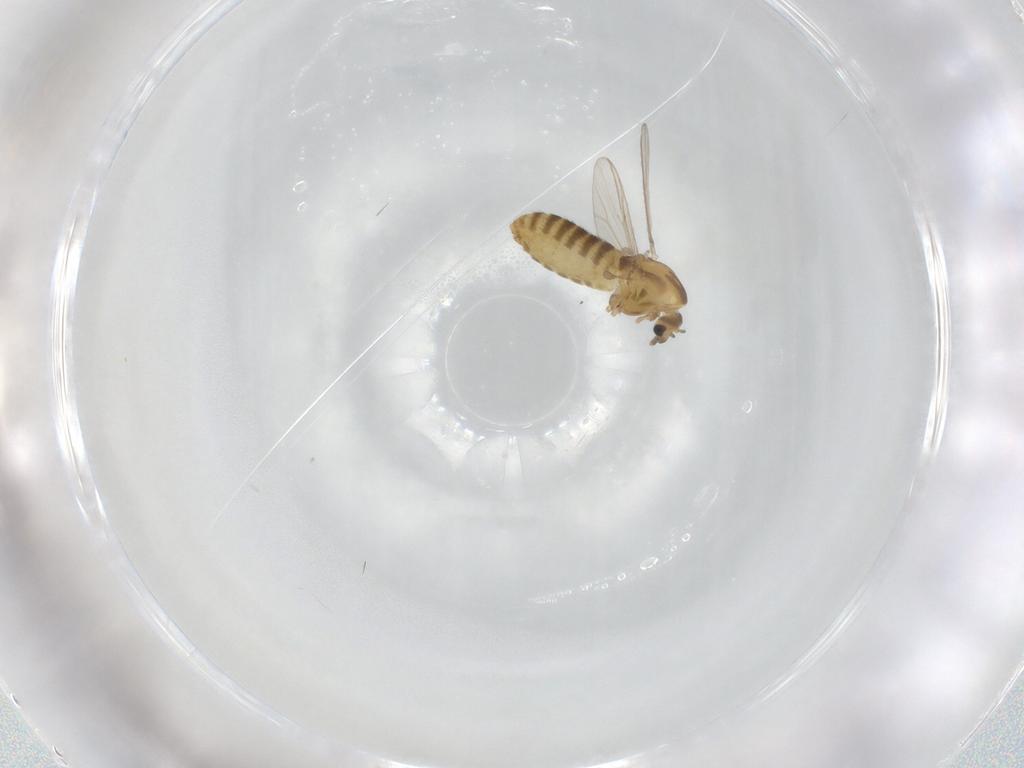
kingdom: Animalia
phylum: Arthropoda
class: Insecta
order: Diptera
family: Chironomidae
